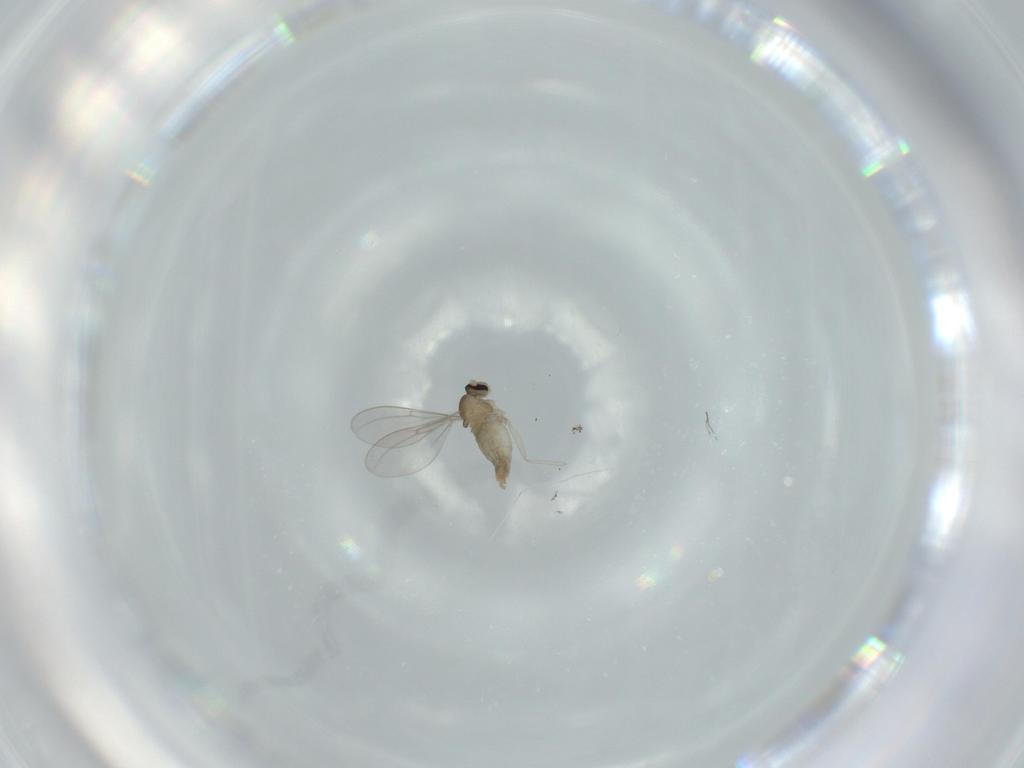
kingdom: Animalia
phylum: Arthropoda
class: Insecta
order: Diptera
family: Cecidomyiidae
